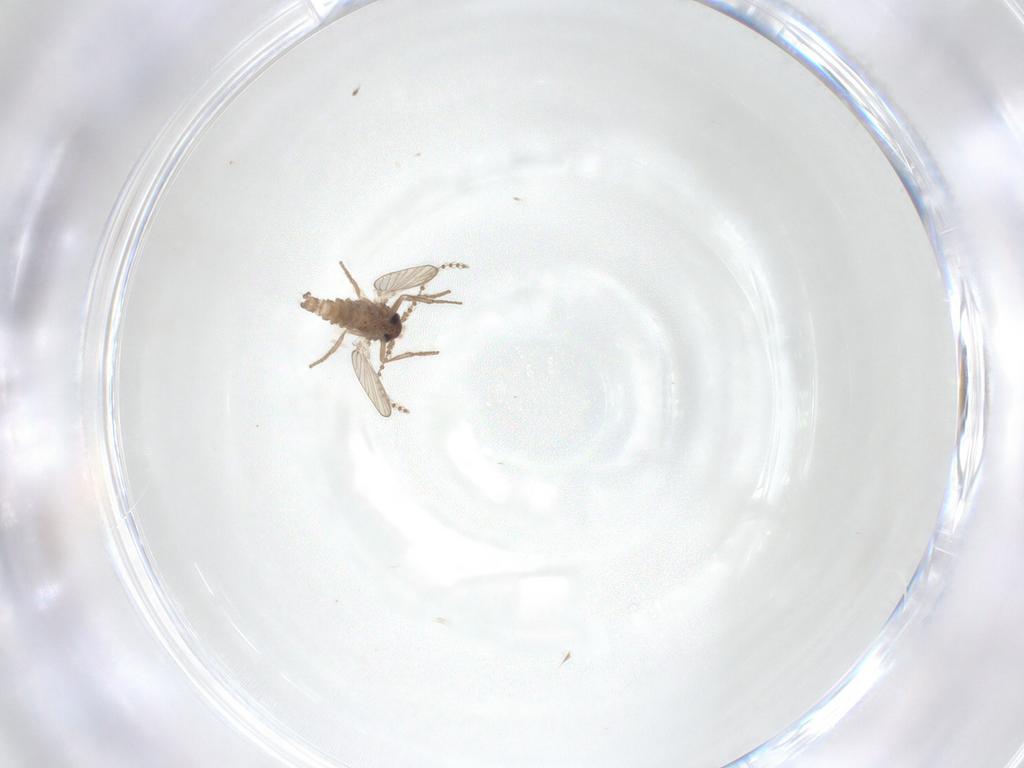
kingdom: Animalia
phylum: Arthropoda
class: Insecta
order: Diptera
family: Psychodidae
